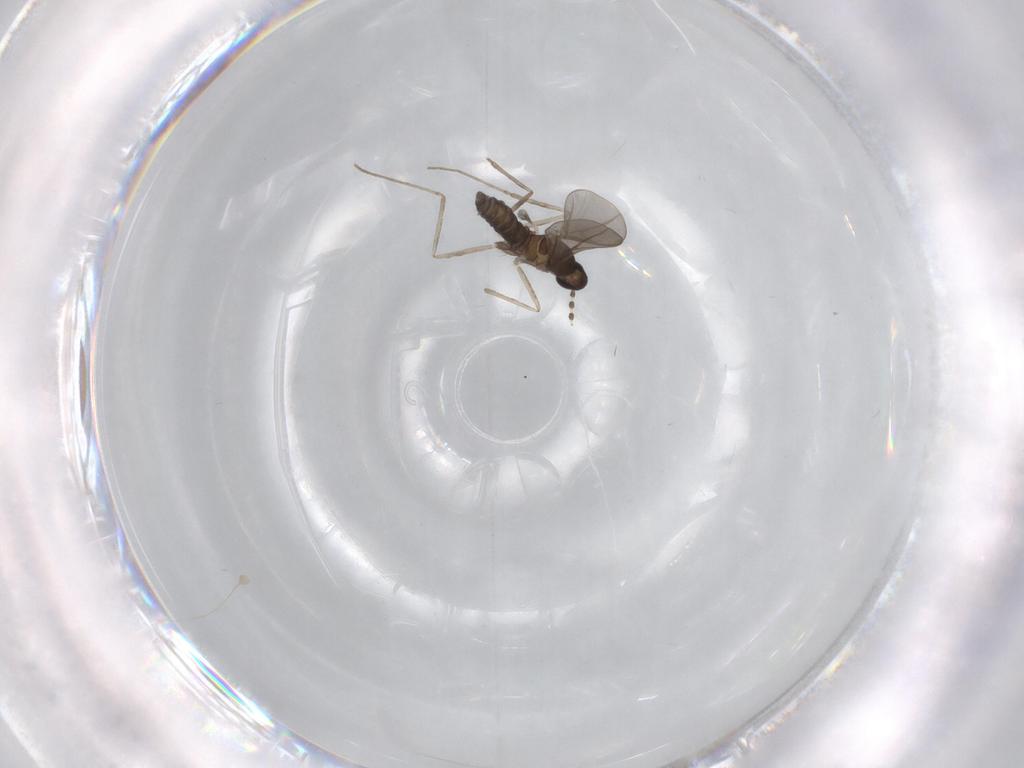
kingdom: Animalia
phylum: Arthropoda
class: Insecta
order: Diptera
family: Cecidomyiidae
